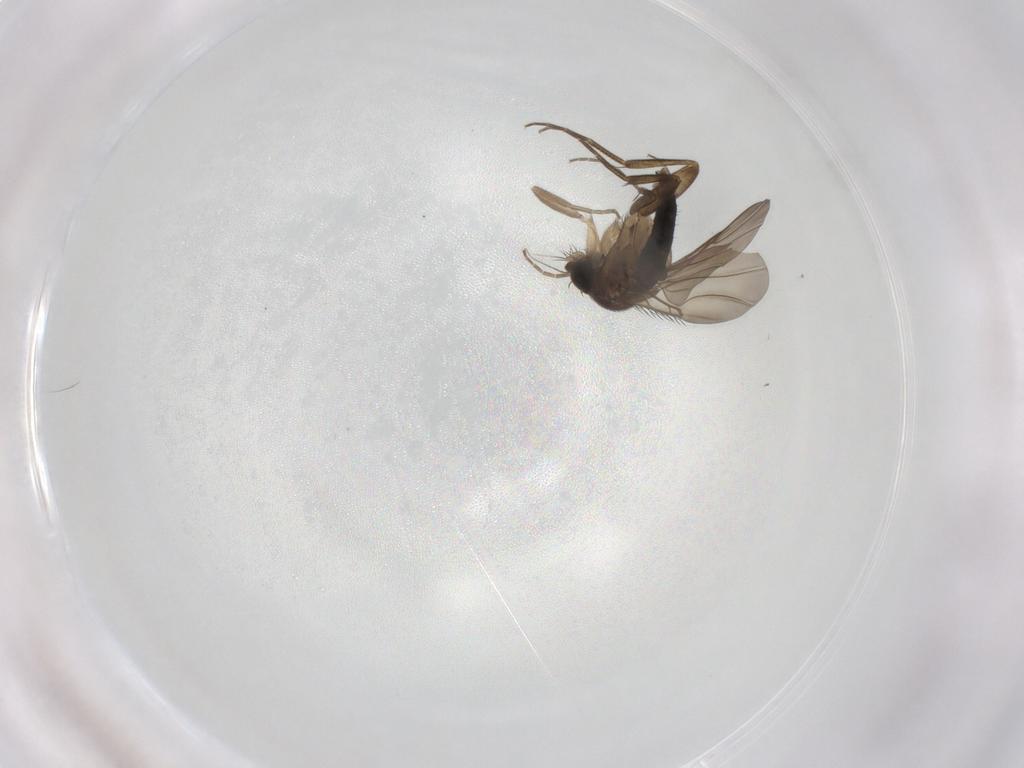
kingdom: Animalia
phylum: Arthropoda
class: Insecta
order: Diptera
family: Phoridae
